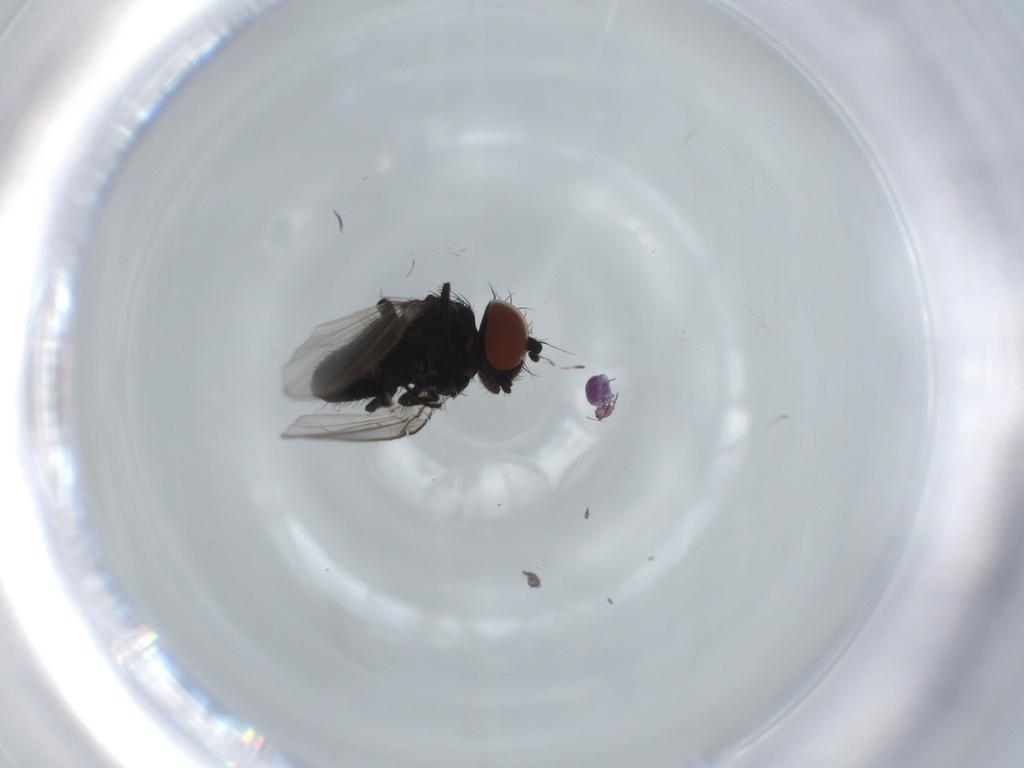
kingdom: Animalia
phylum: Arthropoda
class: Insecta
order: Diptera
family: Milichiidae
